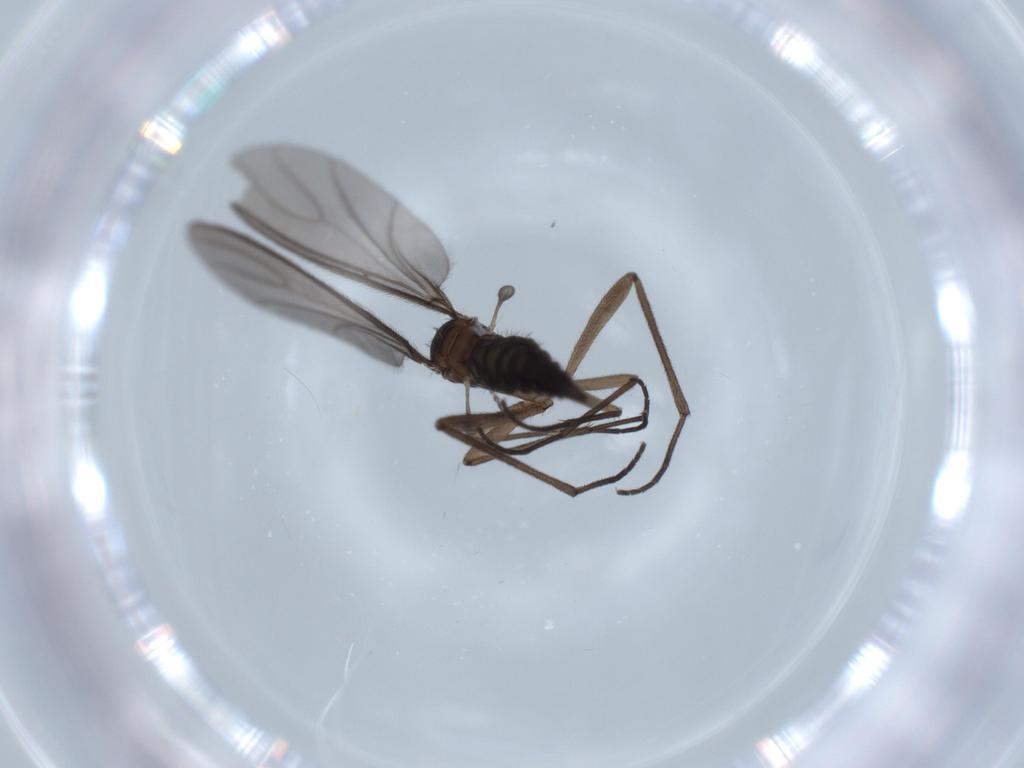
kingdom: Animalia
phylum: Arthropoda
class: Insecta
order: Diptera
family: Sciaridae
